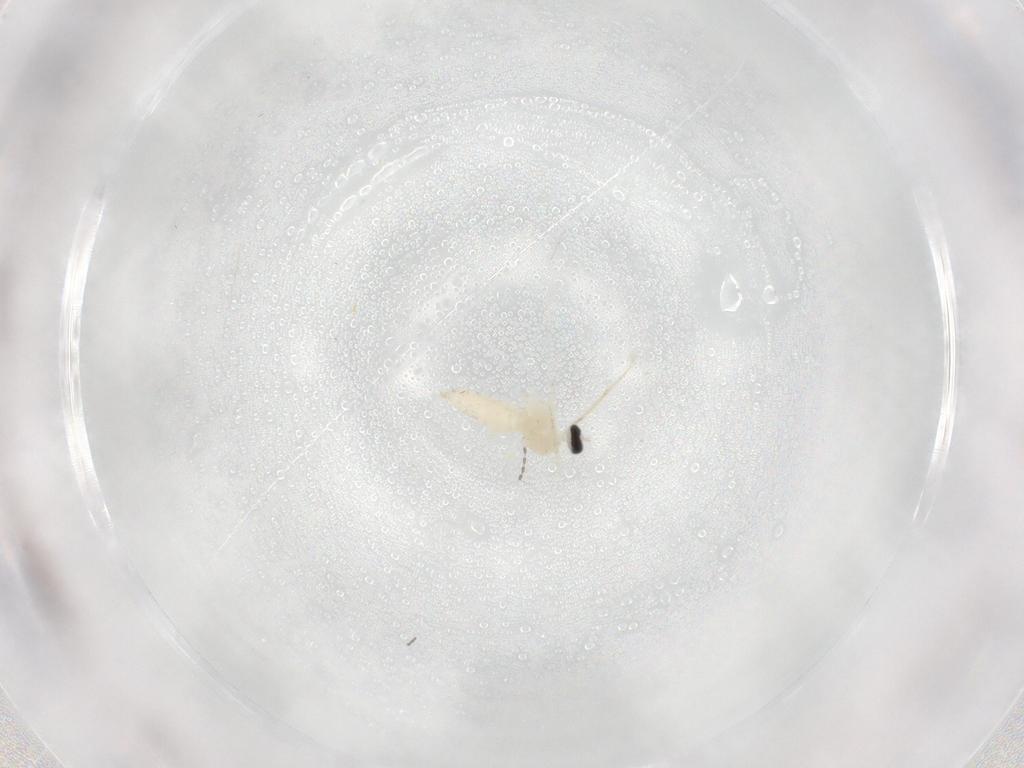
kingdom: Animalia
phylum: Arthropoda
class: Insecta
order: Diptera
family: Cecidomyiidae
